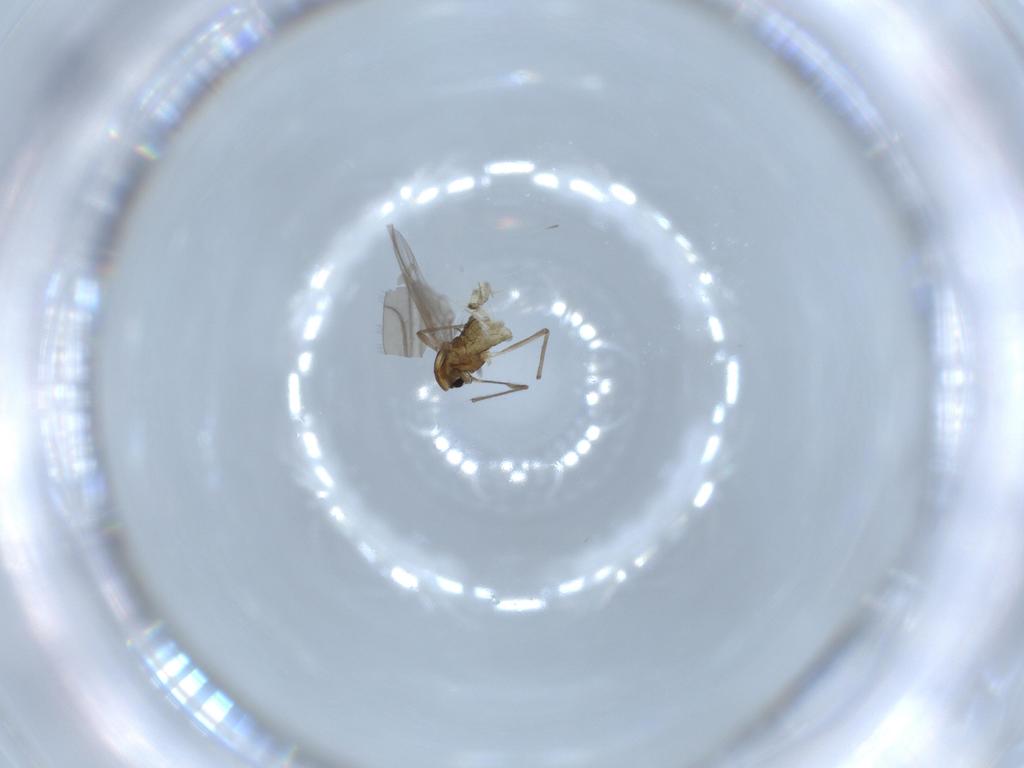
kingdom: Animalia
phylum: Arthropoda
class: Insecta
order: Diptera
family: Chironomidae
